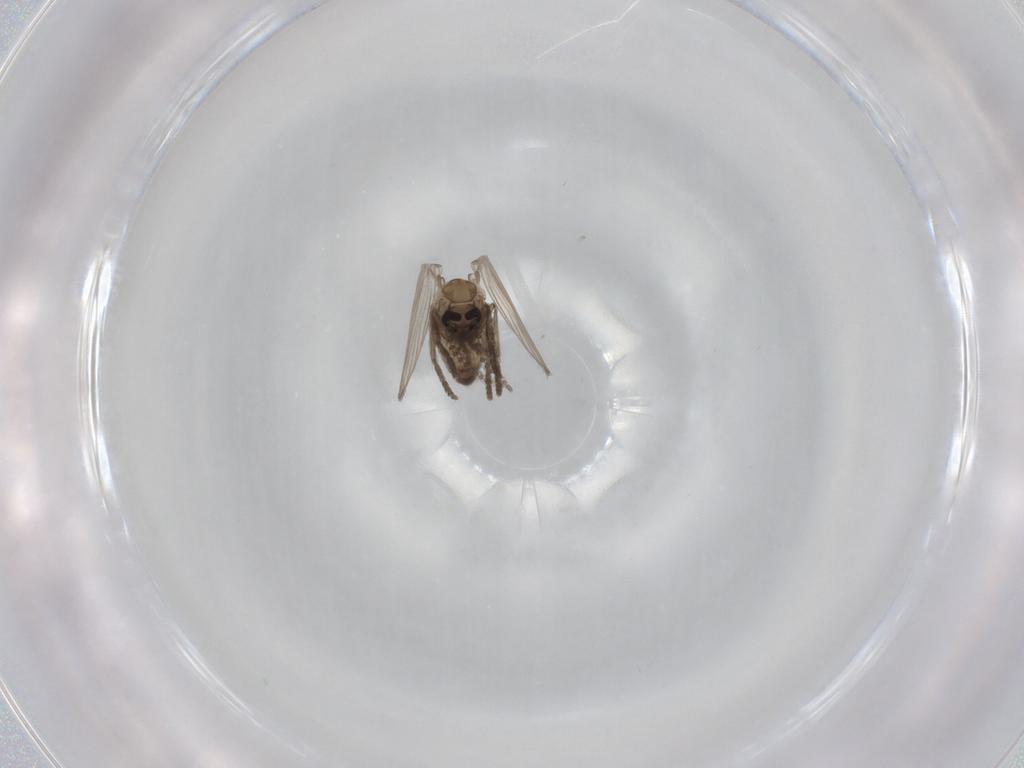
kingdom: Animalia
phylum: Arthropoda
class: Insecta
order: Diptera
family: Psychodidae
